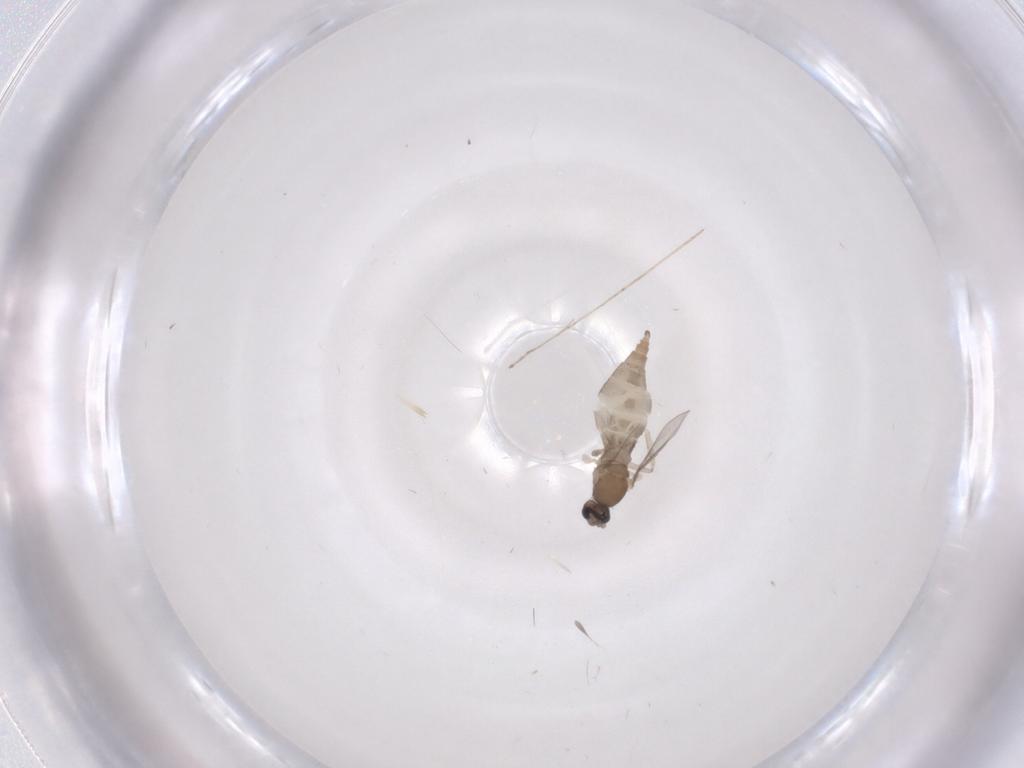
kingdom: Animalia
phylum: Arthropoda
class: Insecta
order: Diptera
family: Cecidomyiidae
